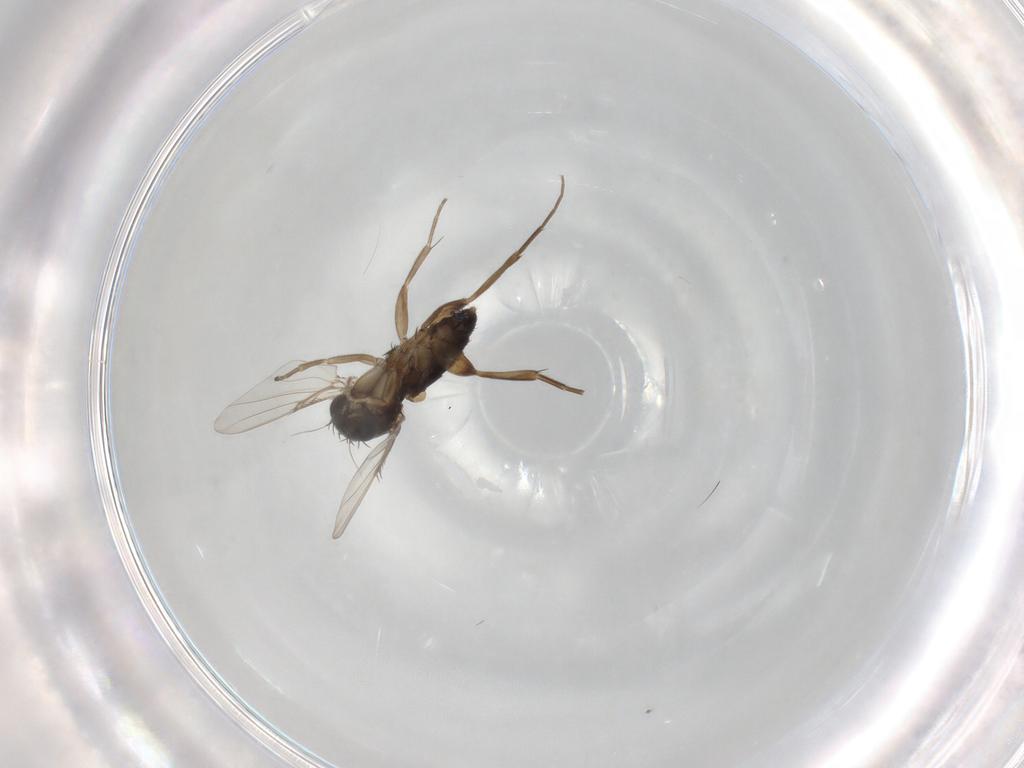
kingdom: Animalia
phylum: Arthropoda
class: Insecta
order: Diptera
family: Phoridae
